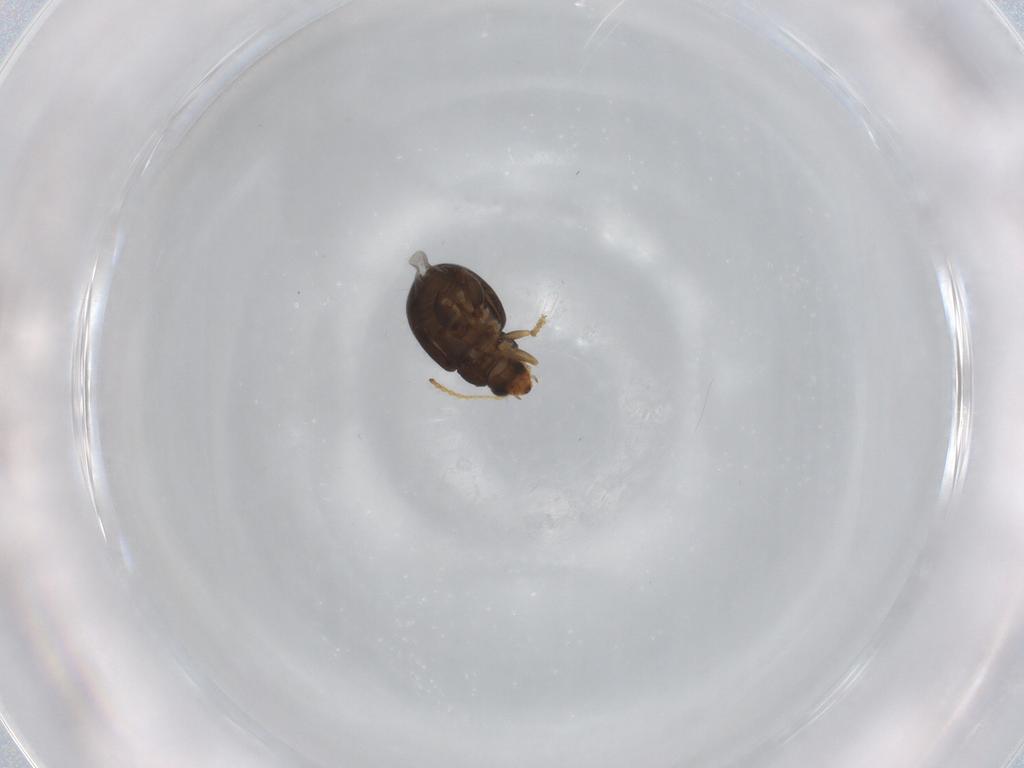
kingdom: Animalia
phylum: Arthropoda
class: Insecta
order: Coleoptera
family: Chrysomelidae
